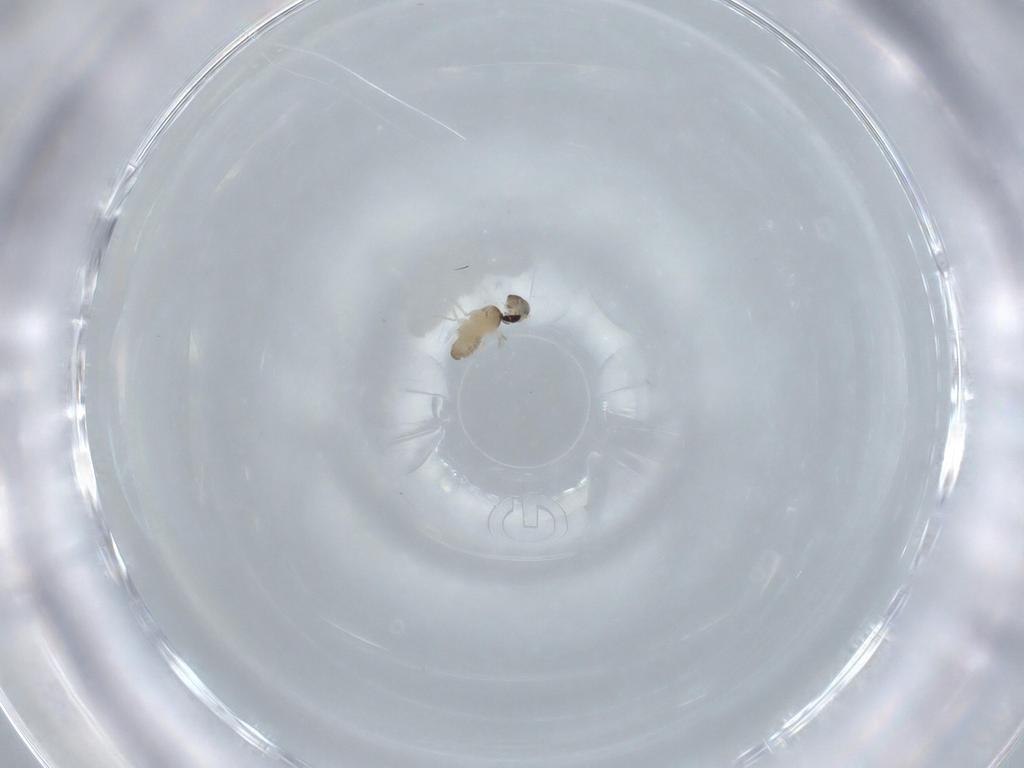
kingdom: Animalia
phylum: Arthropoda
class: Insecta
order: Diptera
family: Cecidomyiidae
